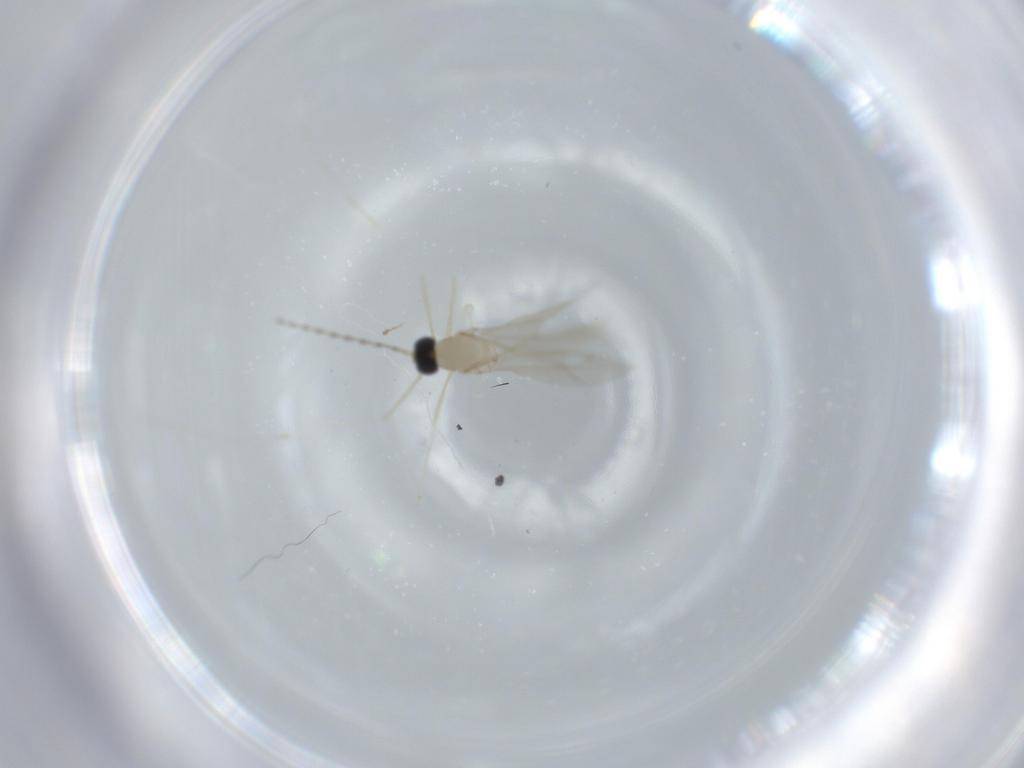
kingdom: Animalia
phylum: Arthropoda
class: Insecta
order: Diptera
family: Cecidomyiidae
